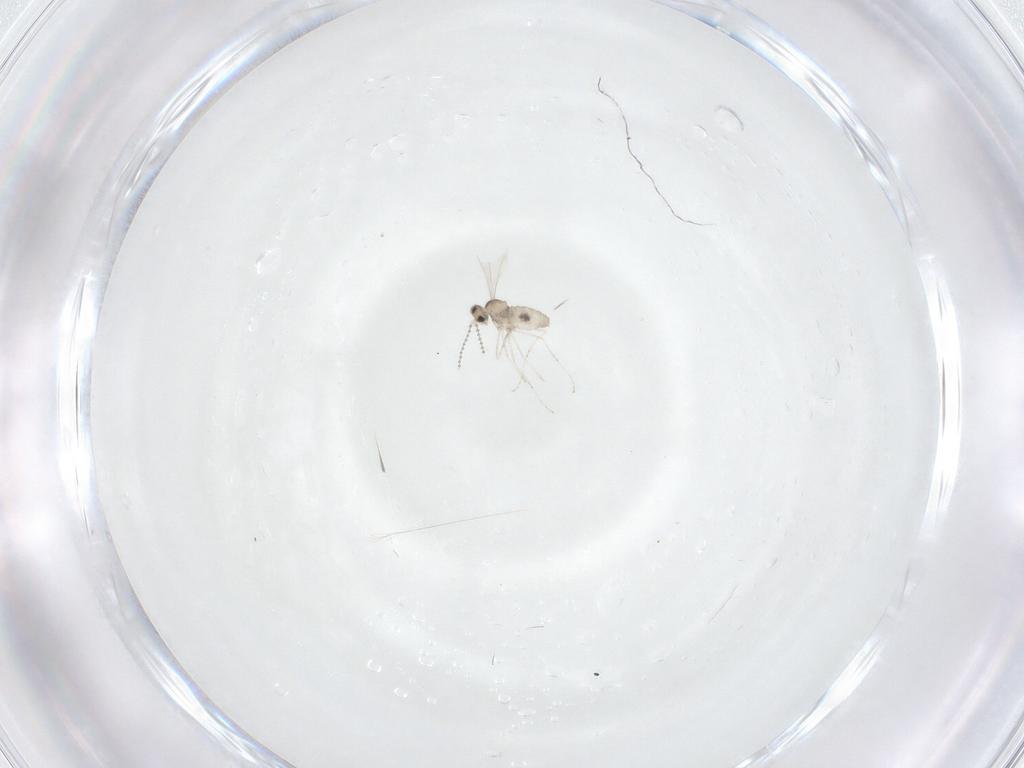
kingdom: Animalia
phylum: Arthropoda
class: Insecta
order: Diptera
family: Cecidomyiidae
